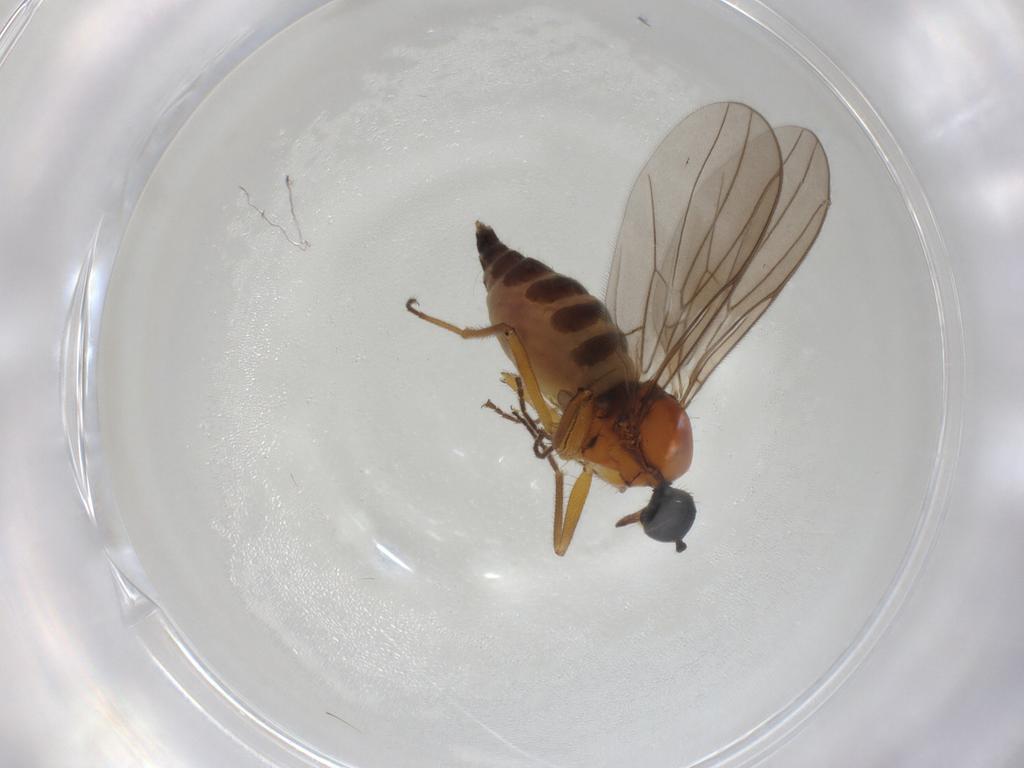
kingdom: Animalia
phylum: Arthropoda
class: Insecta
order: Diptera
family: Hybotidae
